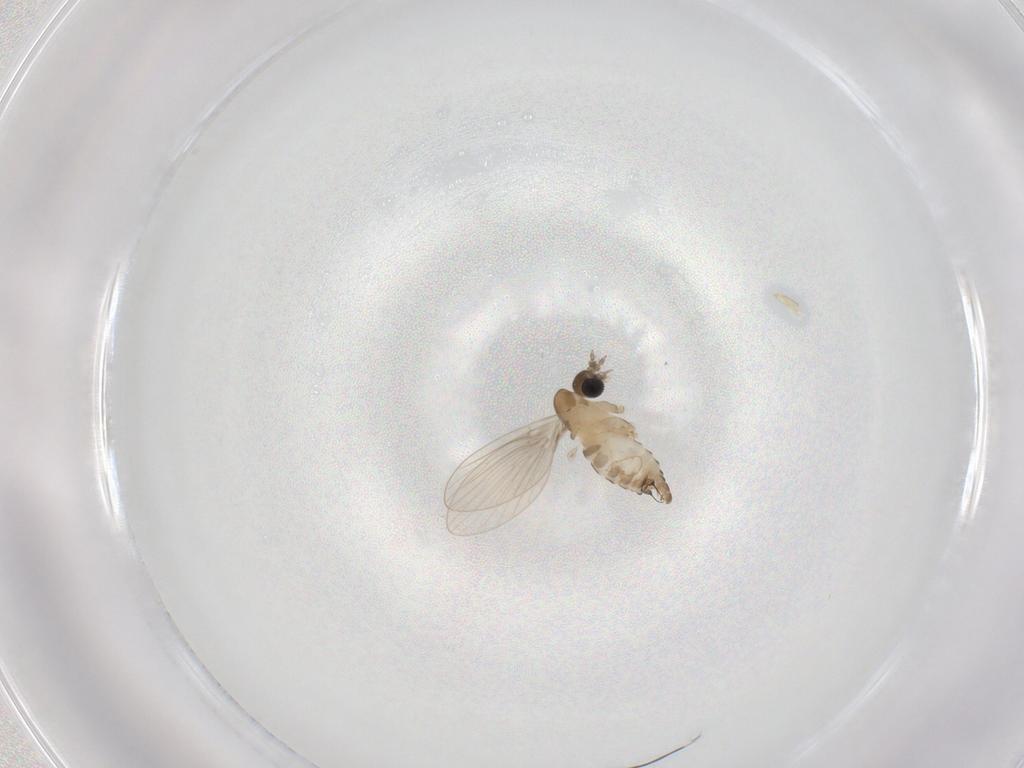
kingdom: Animalia
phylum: Arthropoda
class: Insecta
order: Diptera
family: Psychodidae
